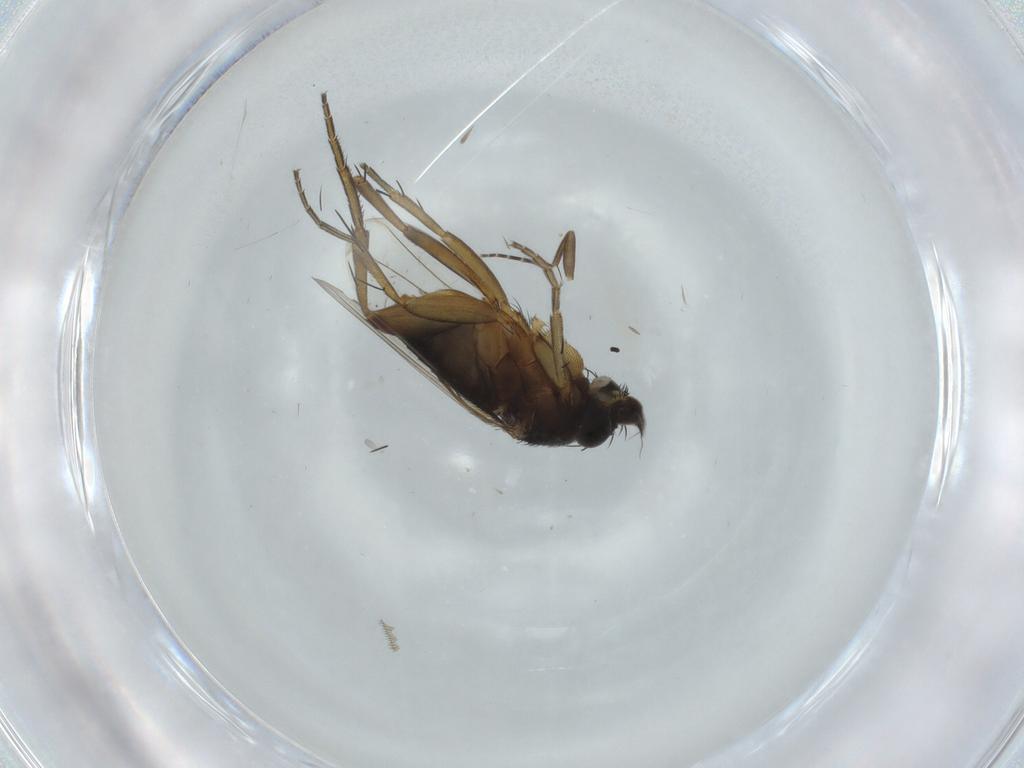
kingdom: Animalia
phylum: Arthropoda
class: Insecta
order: Diptera
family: Phoridae
